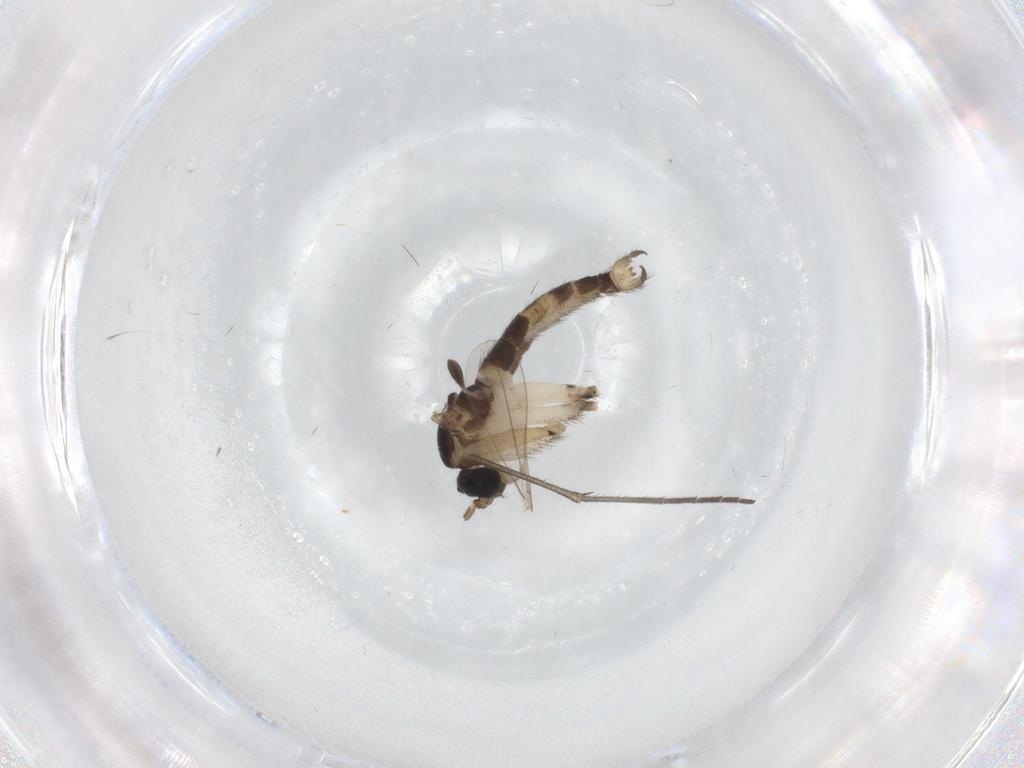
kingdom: Animalia
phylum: Arthropoda
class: Insecta
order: Diptera
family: Sciaridae
